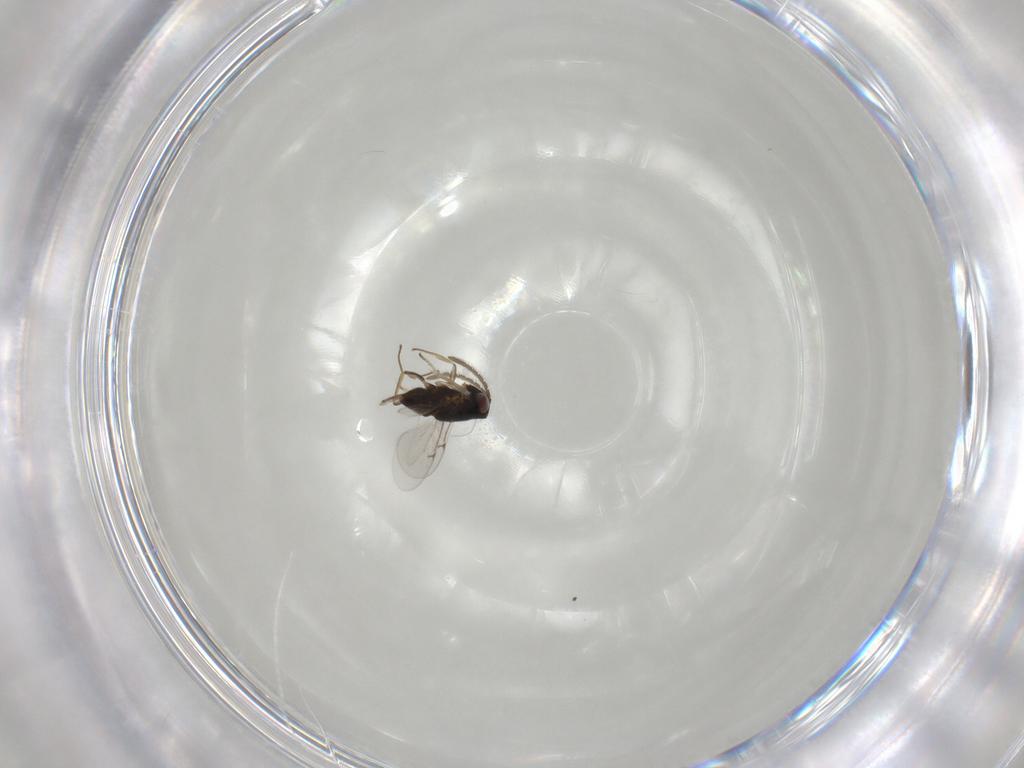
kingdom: Animalia
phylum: Arthropoda
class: Insecta
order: Hymenoptera
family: Encyrtidae
